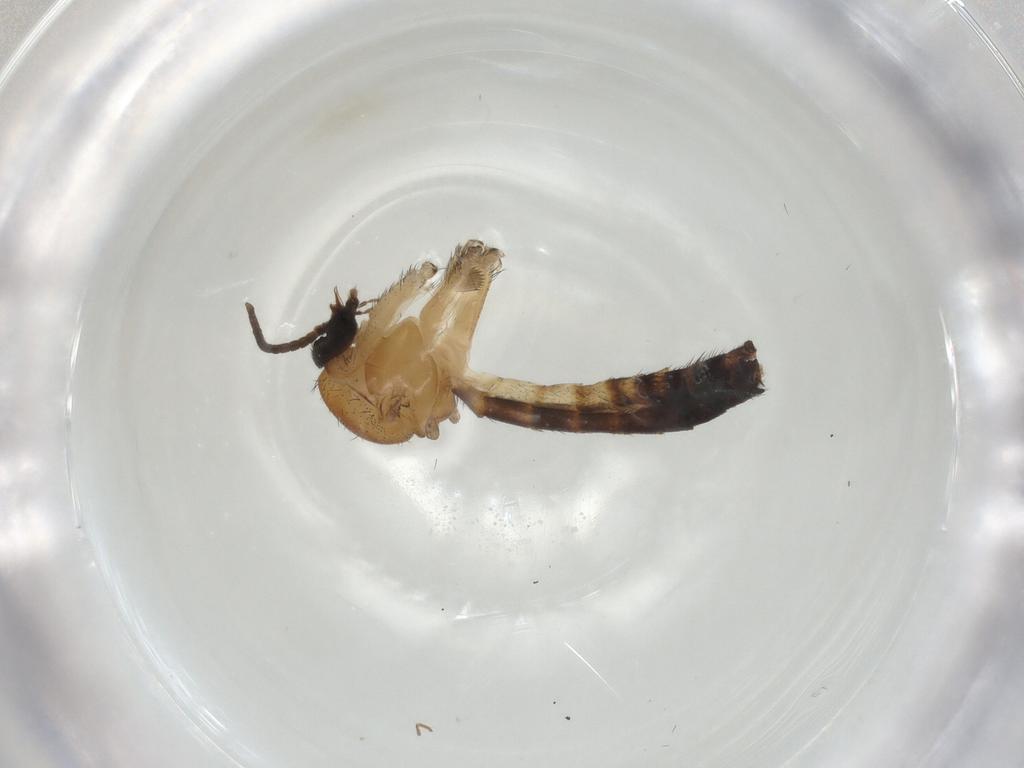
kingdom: Animalia
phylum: Arthropoda
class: Insecta
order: Diptera
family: Keroplatidae
